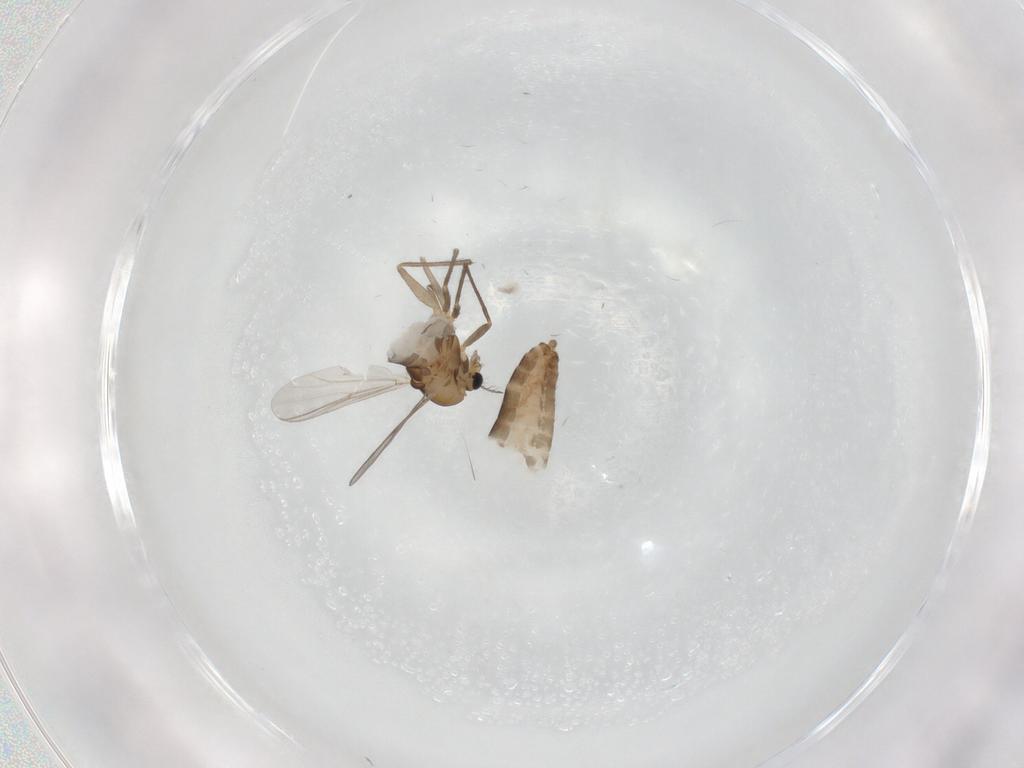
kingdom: Animalia
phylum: Arthropoda
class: Insecta
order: Diptera
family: Chironomidae
